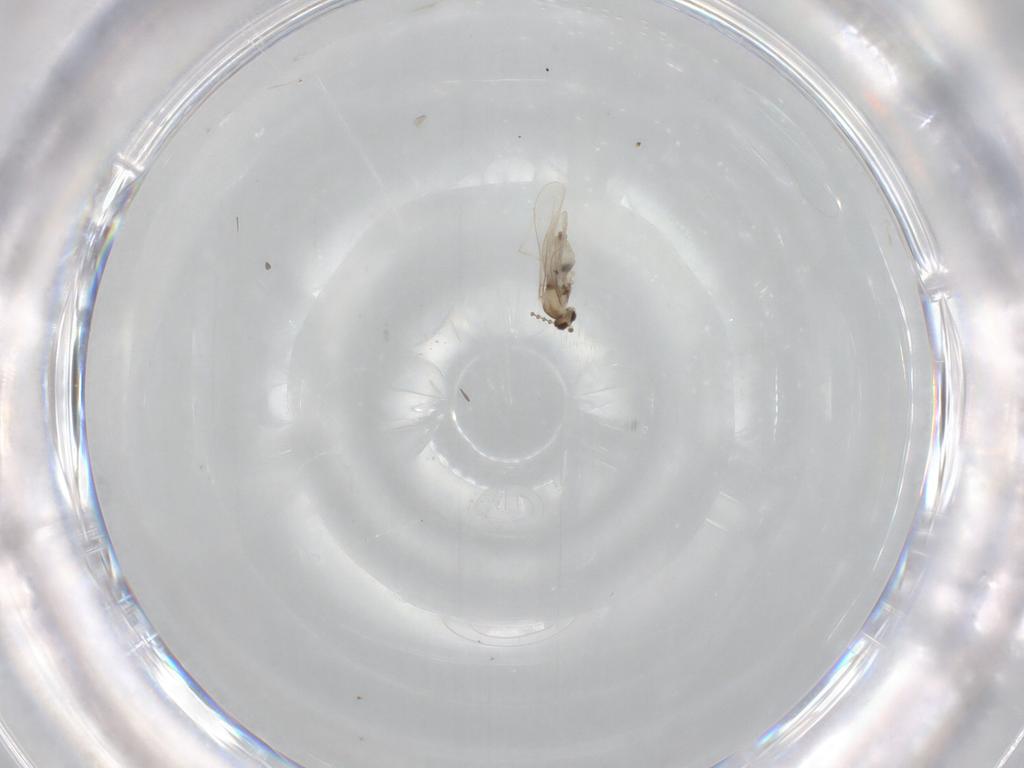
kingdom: Animalia
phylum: Arthropoda
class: Insecta
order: Diptera
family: Cecidomyiidae
